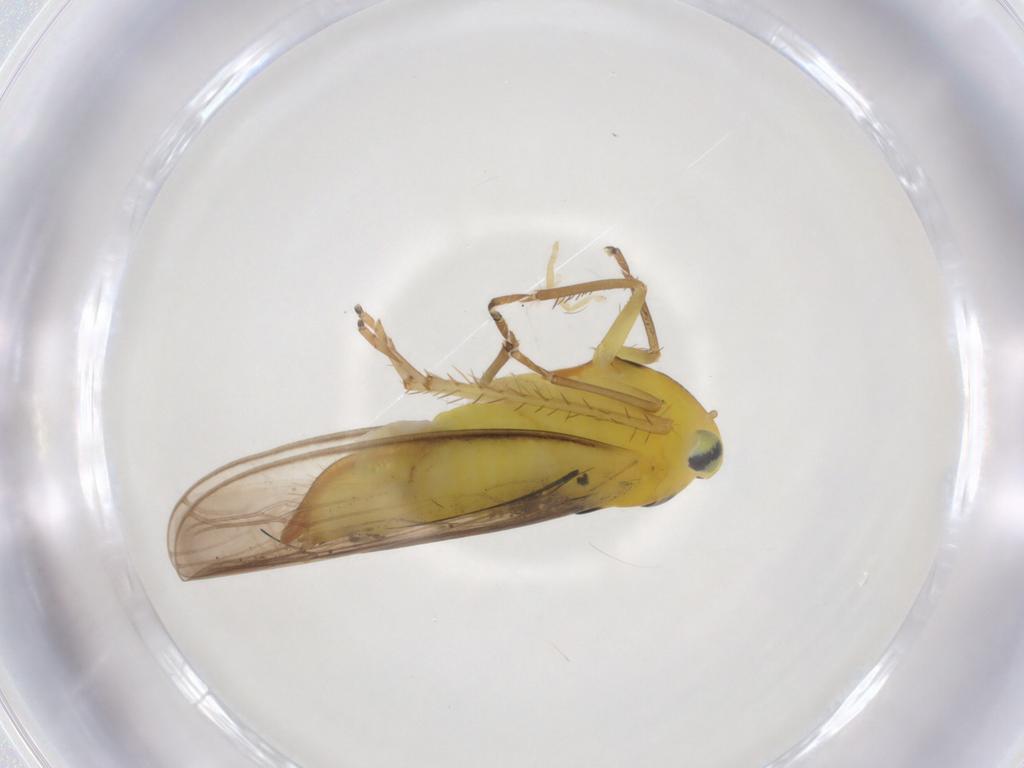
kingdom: Animalia
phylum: Arthropoda
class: Insecta
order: Hemiptera
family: Cicadellidae
